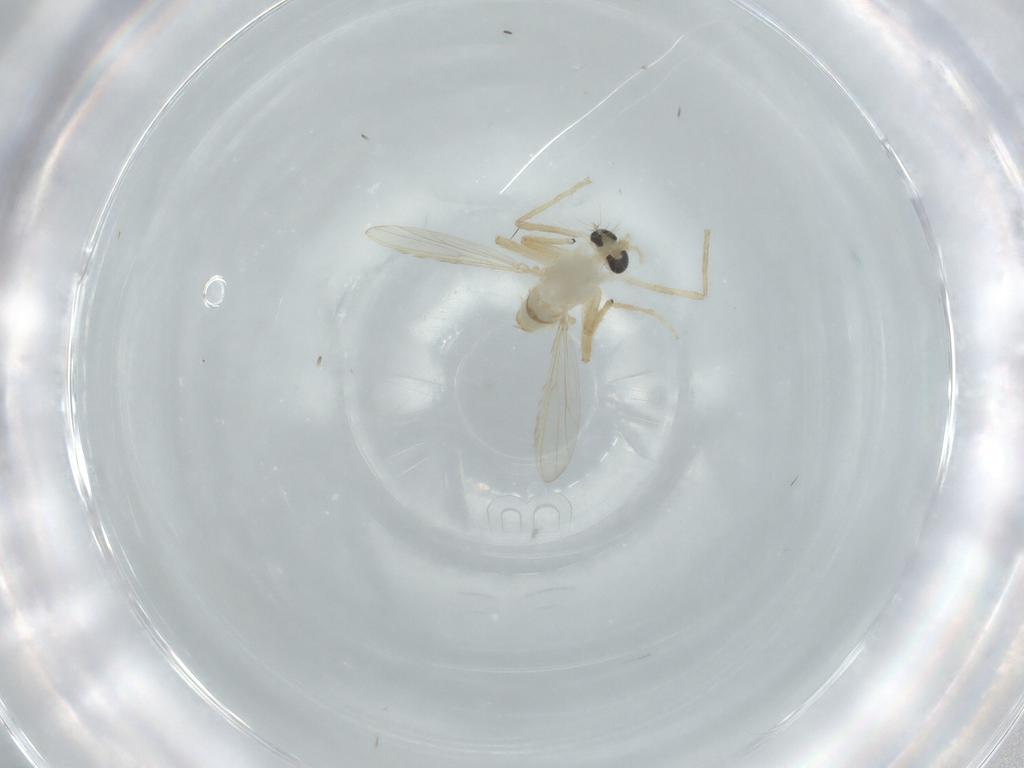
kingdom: Animalia
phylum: Arthropoda
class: Insecta
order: Diptera
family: Chironomidae
